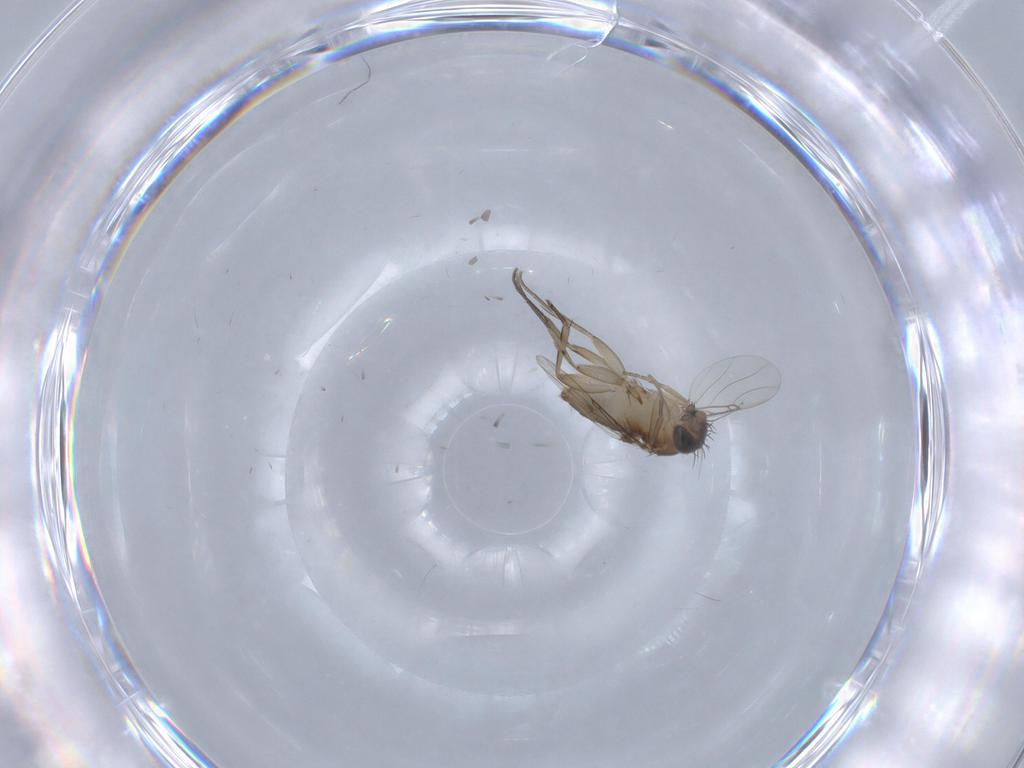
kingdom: Animalia
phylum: Arthropoda
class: Insecta
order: Diptera
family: Phoridae
